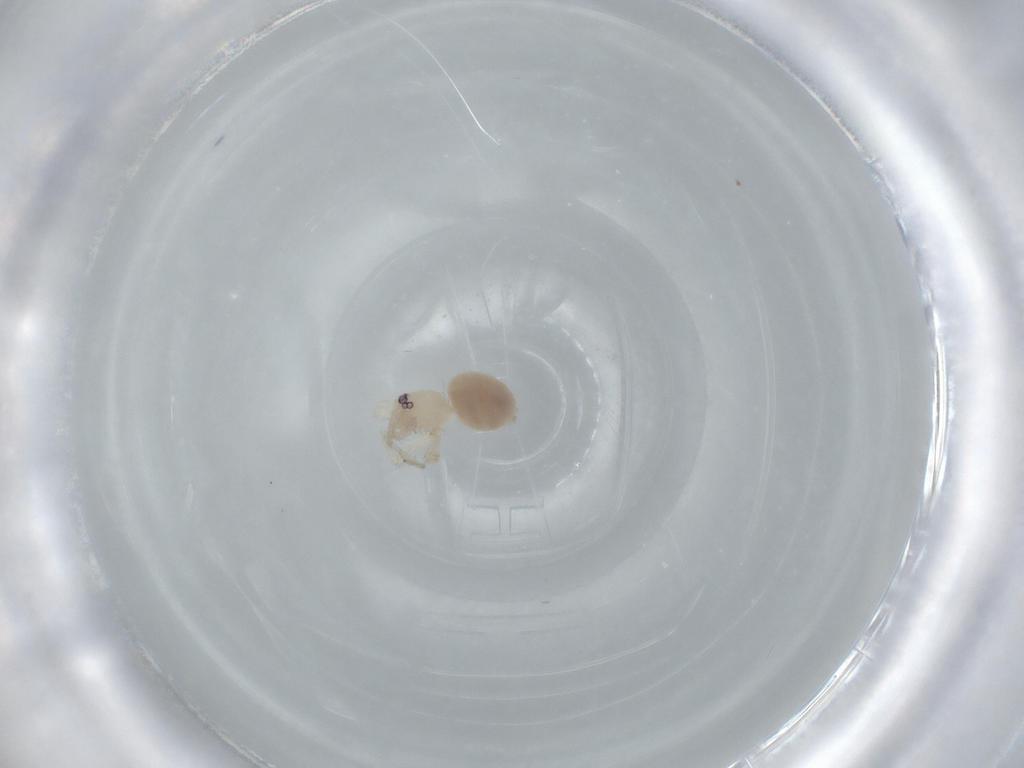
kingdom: Animalia
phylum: Arthropoda
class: Arachnida
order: Araneae
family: Oonopidae
